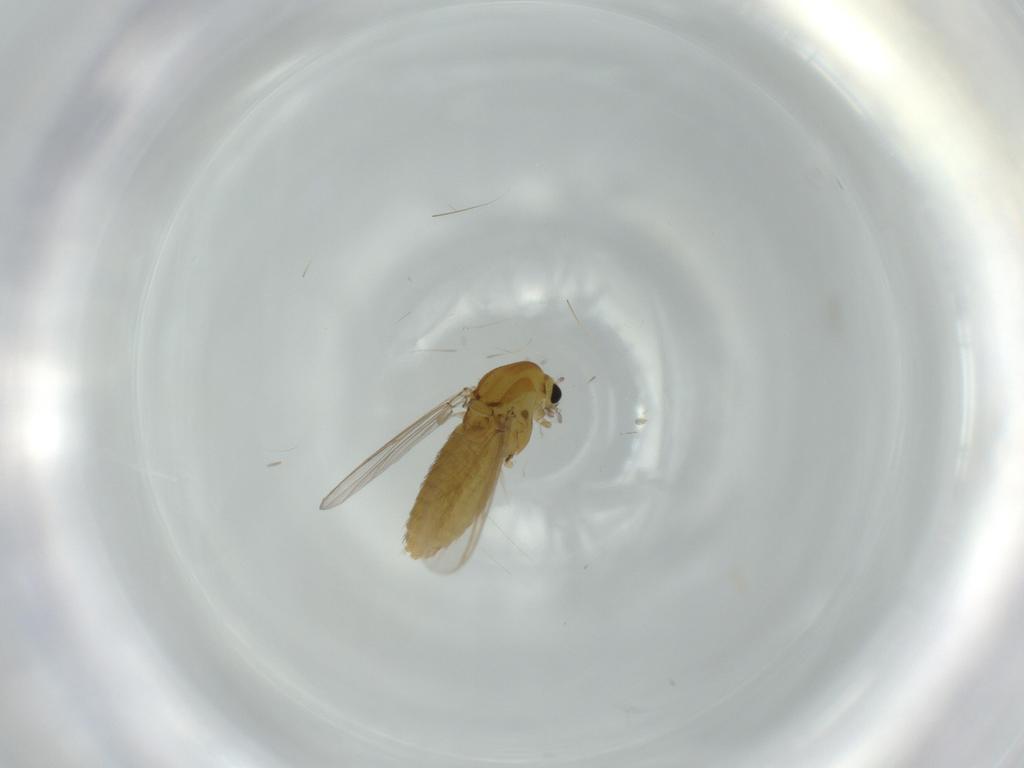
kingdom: Animalia
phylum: Arthropoda
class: Insecta
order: Diptera
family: Chironomidae
